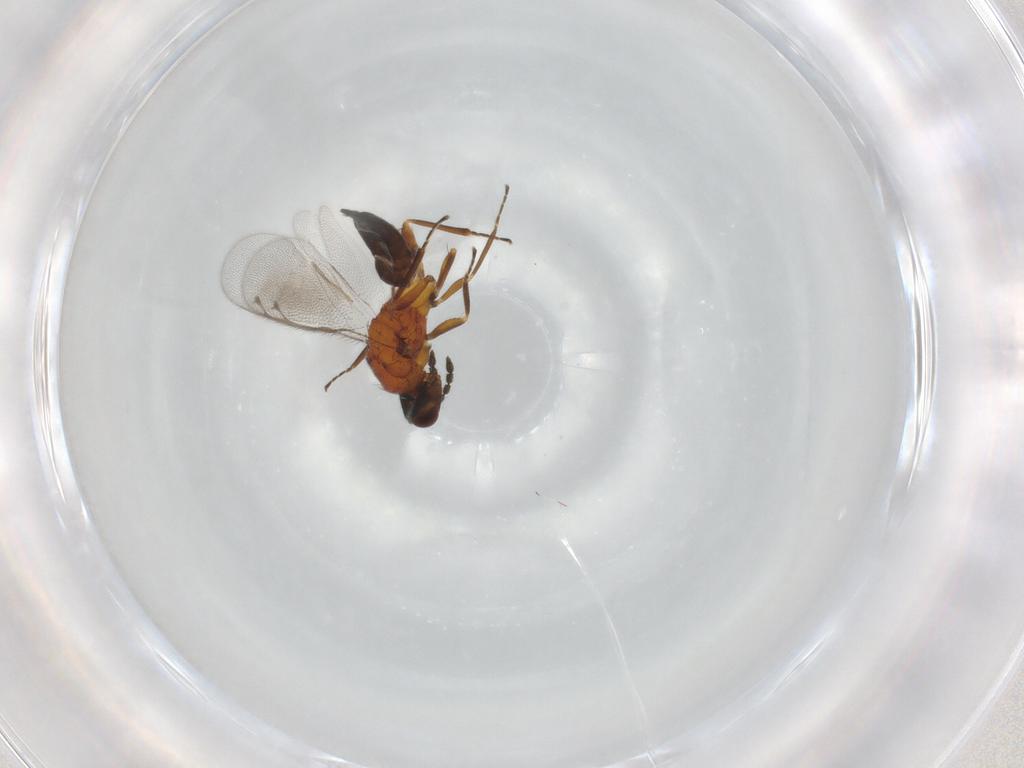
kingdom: Animalia
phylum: Arthropoda
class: Insecta
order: Hymenoptera
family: Eulophidae
